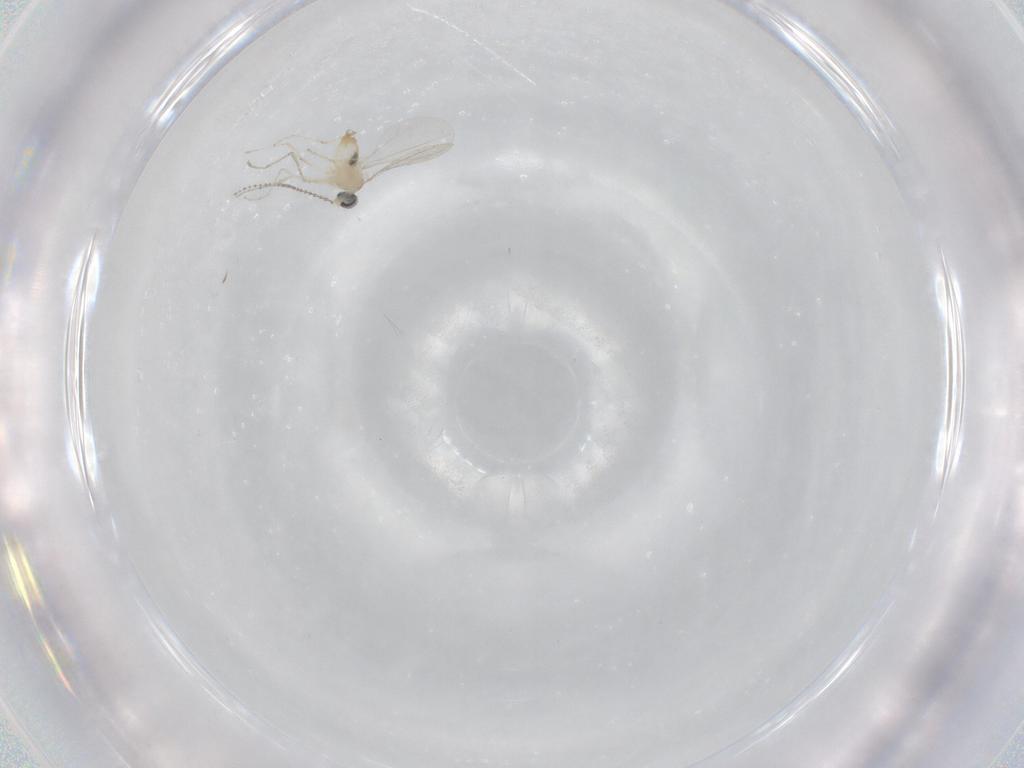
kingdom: Animalia
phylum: Arthropoda
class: Insecta
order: Diptera
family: Cecidomyiidae
